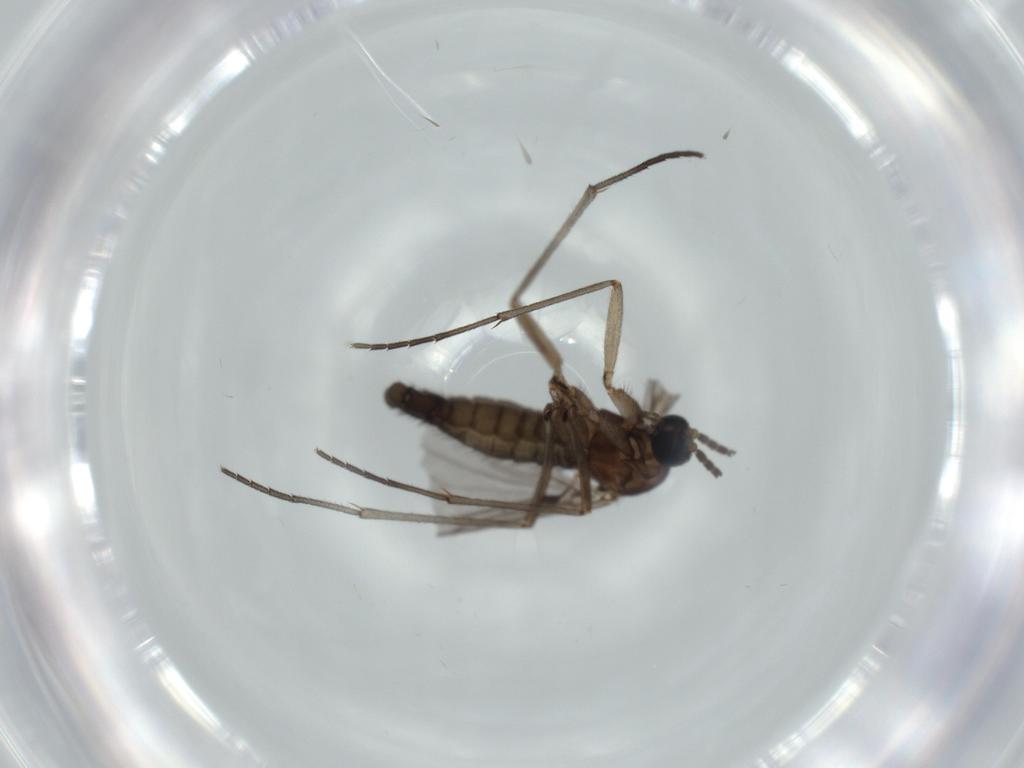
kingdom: Animalia
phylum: Arthropoda
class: Insecta
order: Diptera
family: Sciaridae
